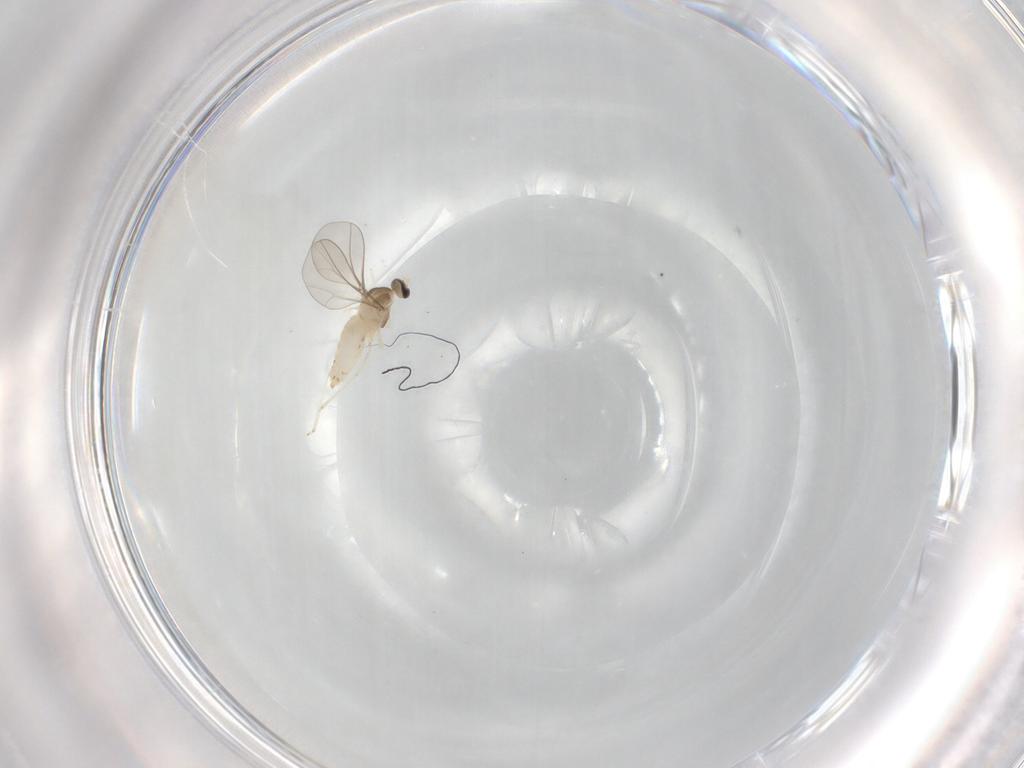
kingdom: Animalia
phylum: Arthropoda
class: Insecta
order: Diptera
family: Cecidomyiidae
